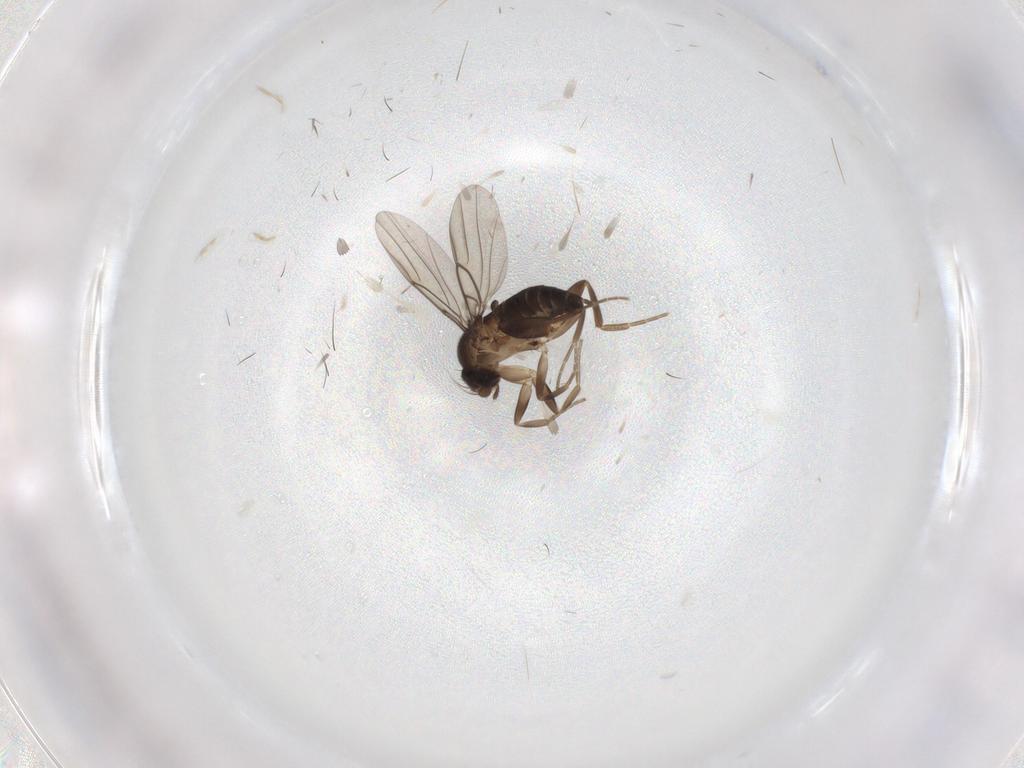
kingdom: Animalia
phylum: Arthropoda
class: Insecta
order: Diptera
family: Phoridae
